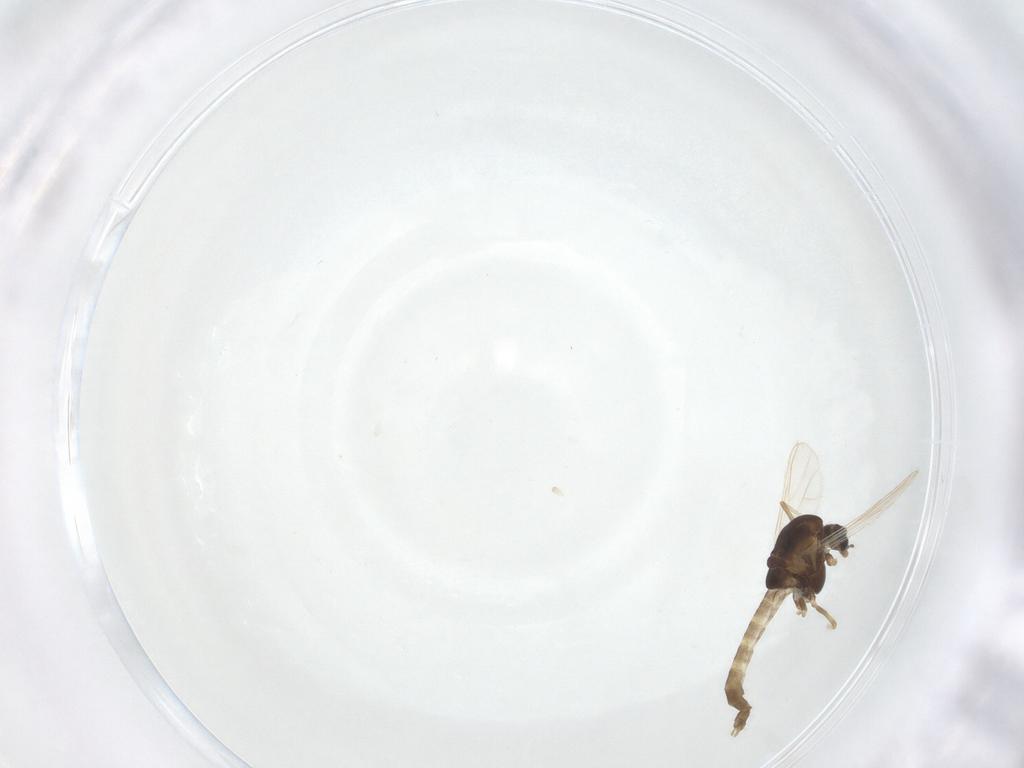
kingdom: Animalia
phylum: Arthropoda
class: Insecta
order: Diptera
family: Chironomidae
